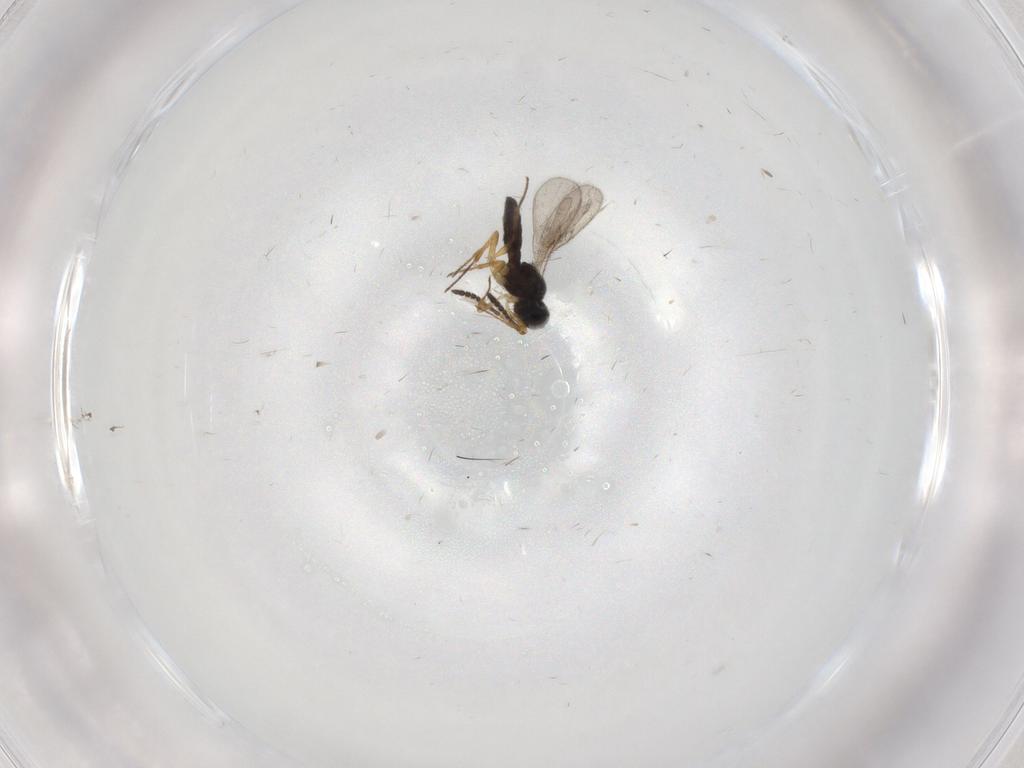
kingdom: Animalia
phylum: Arthropoda
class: Insecta
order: Hymenoptera
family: Scelionidae
